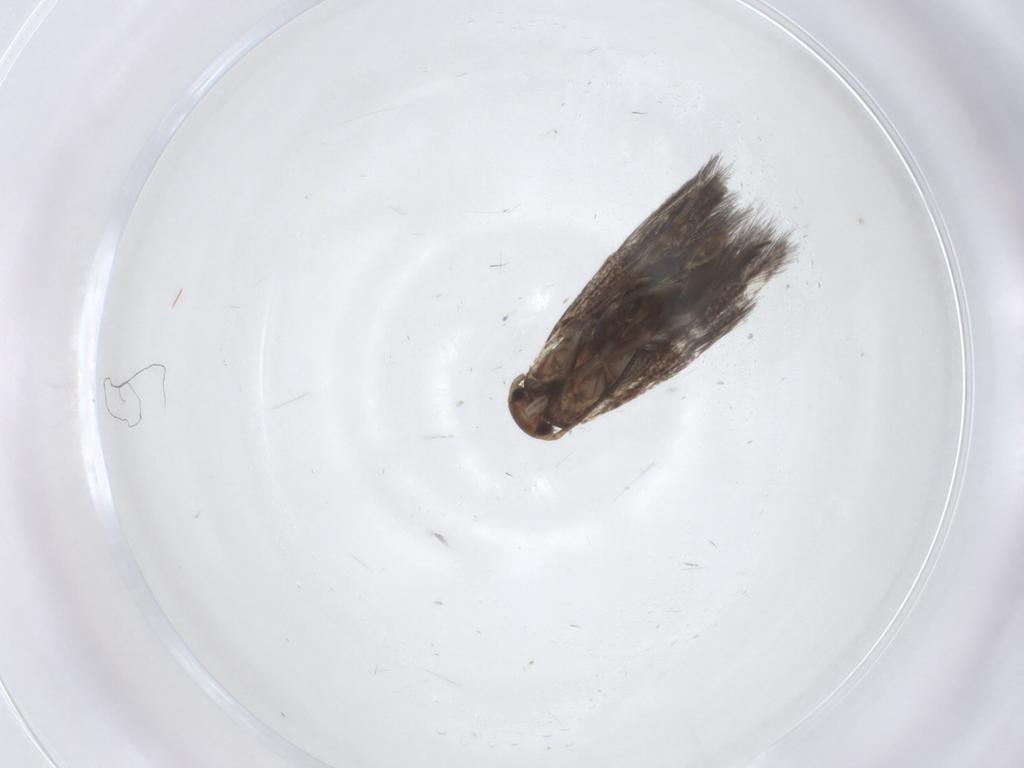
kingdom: Animalia
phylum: Arthropoda
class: Insecta
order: Lepidoptera
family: Elachistidae
